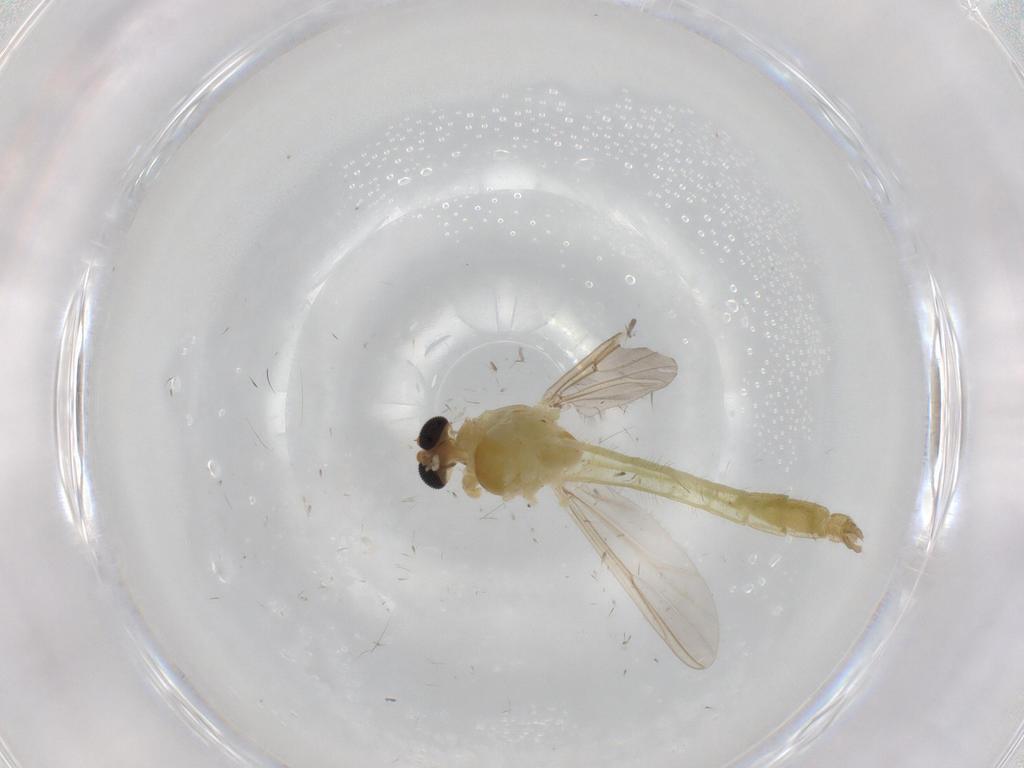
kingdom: Animalia
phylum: Arthropoda
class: Insecta
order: Diptera
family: Chironomidae
